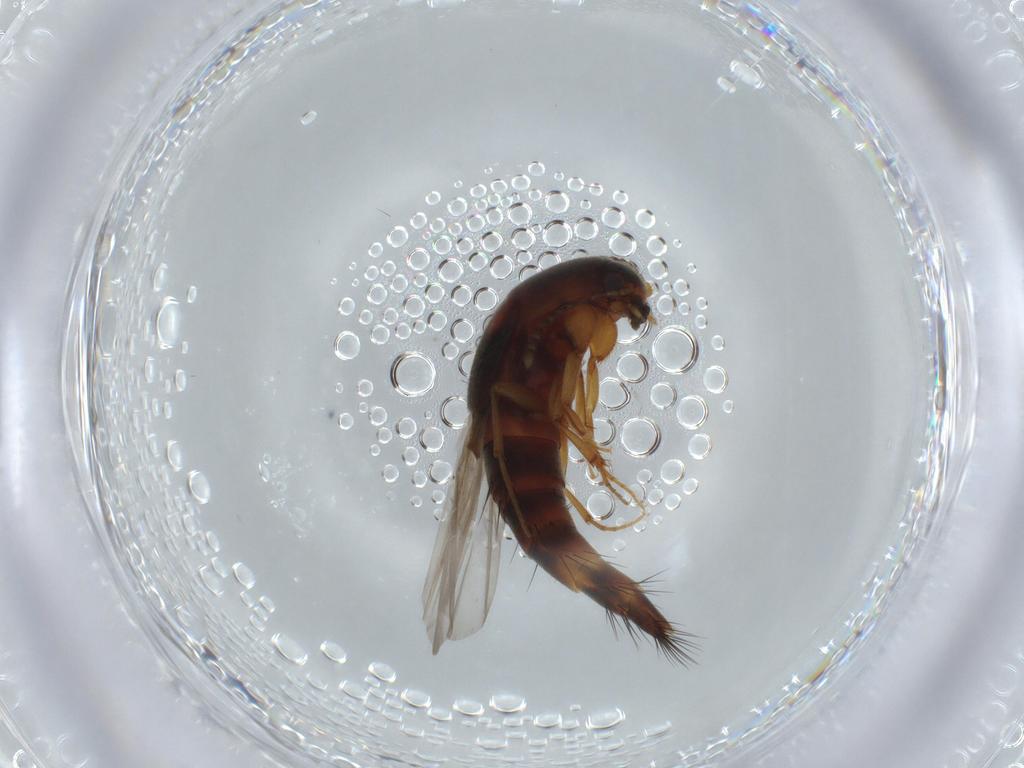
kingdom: Animalia
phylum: Arthropoda
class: Insecta
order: Coleoptera
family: Staphylinidae
